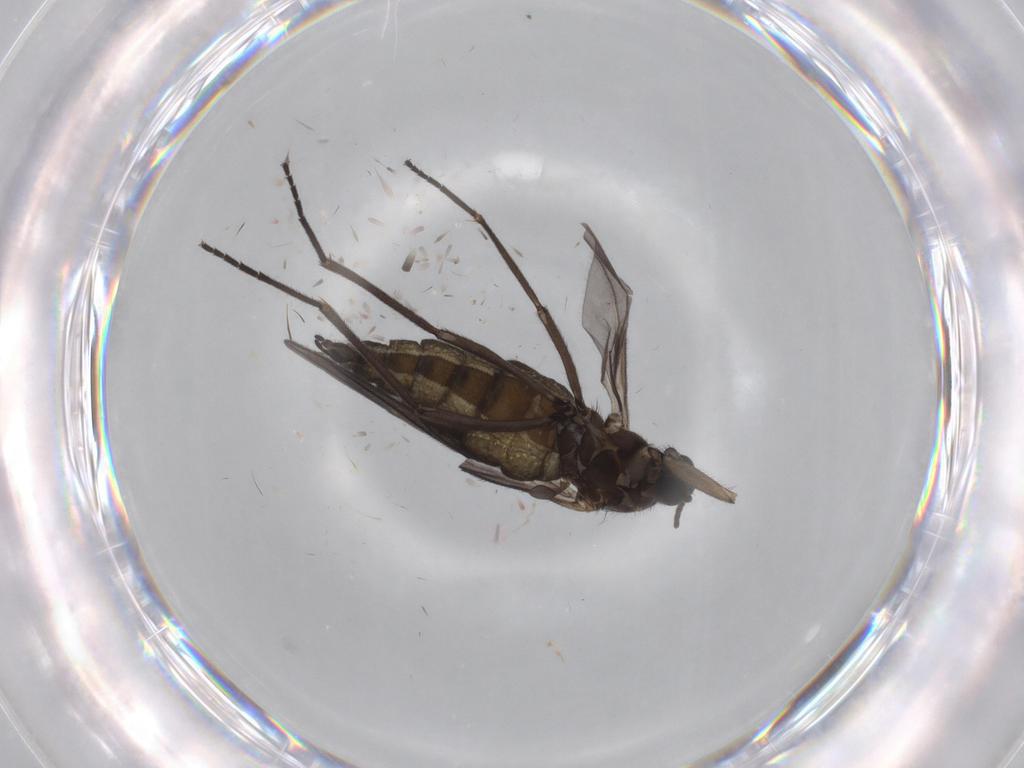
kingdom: Animalia
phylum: Arthropoda
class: Insecta
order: Diptera
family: Sciaridae
